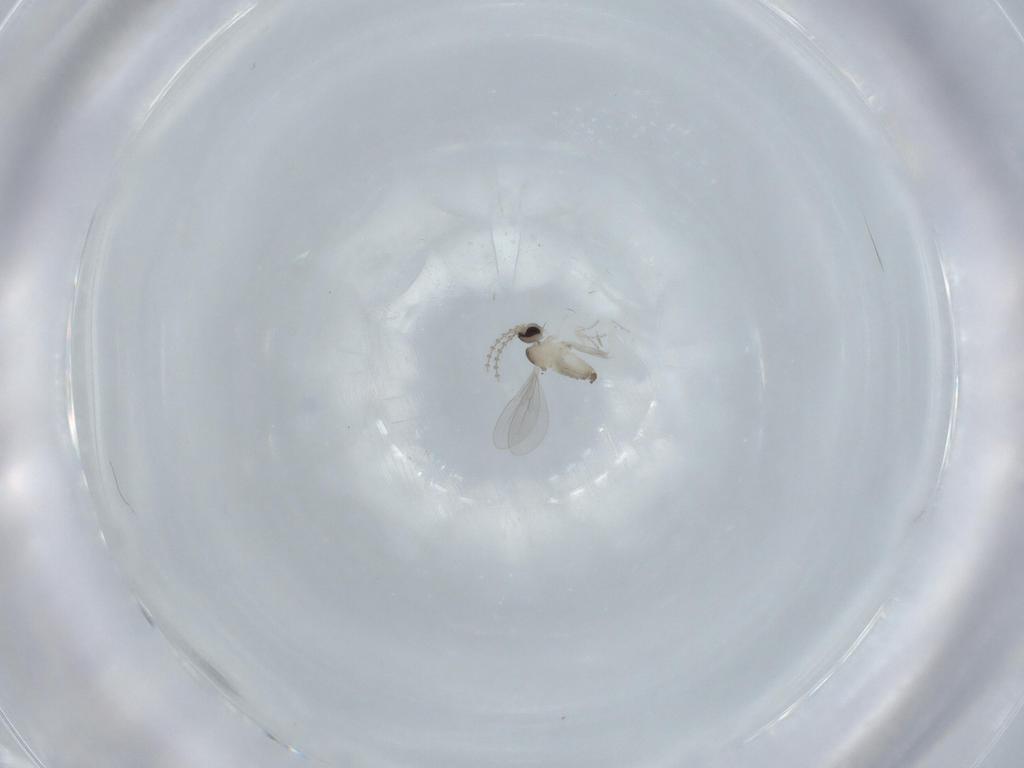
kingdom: Animalia
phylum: Arthropoda
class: Insecta
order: Diptera
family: Cecidomyiidae
